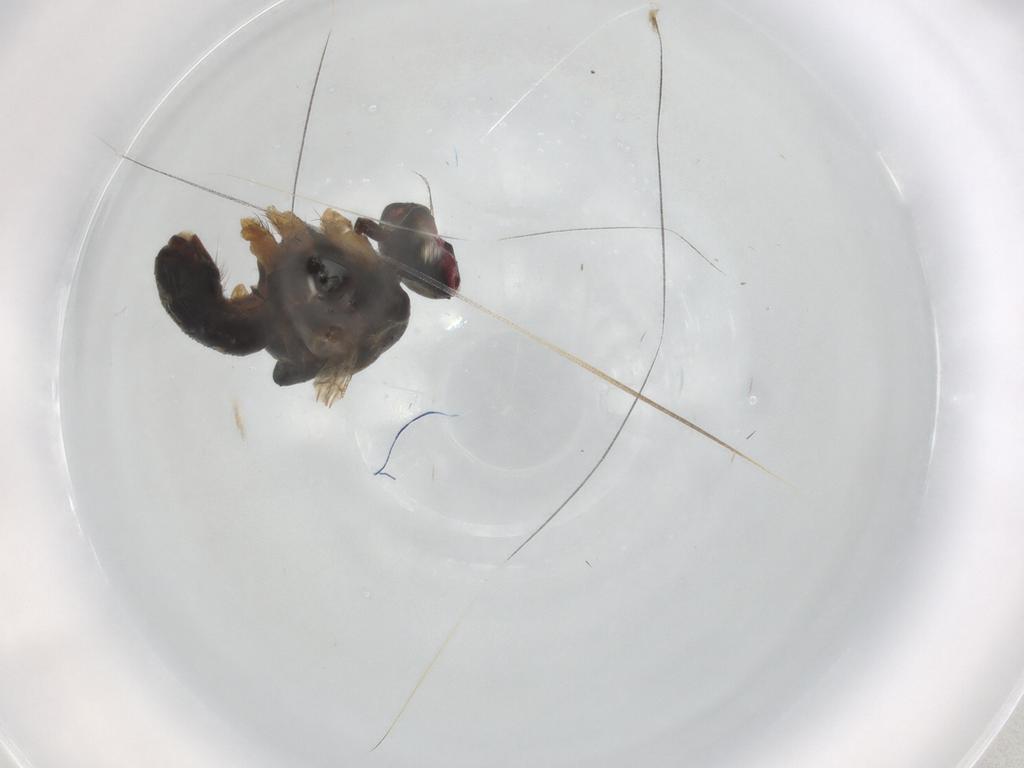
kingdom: Animalia
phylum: Arthropoda
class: Insecta
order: Diptera
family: Muscidae
